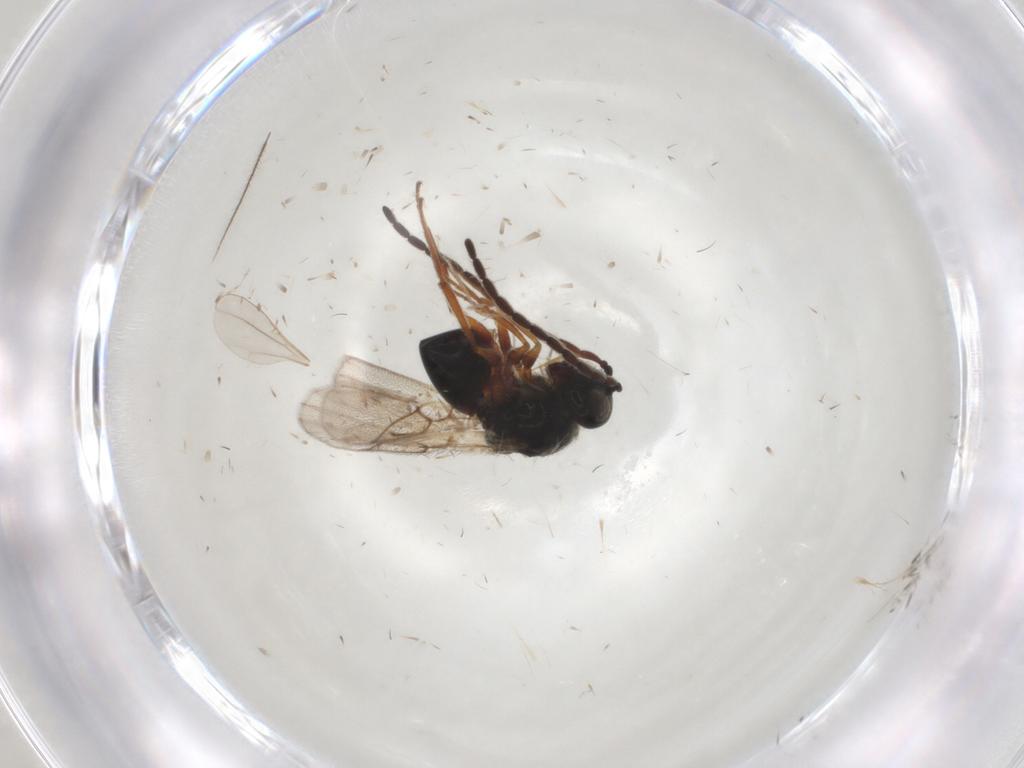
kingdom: Animalia
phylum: Arthropoda
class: Insecta
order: Hymenoptera
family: Figitidae
